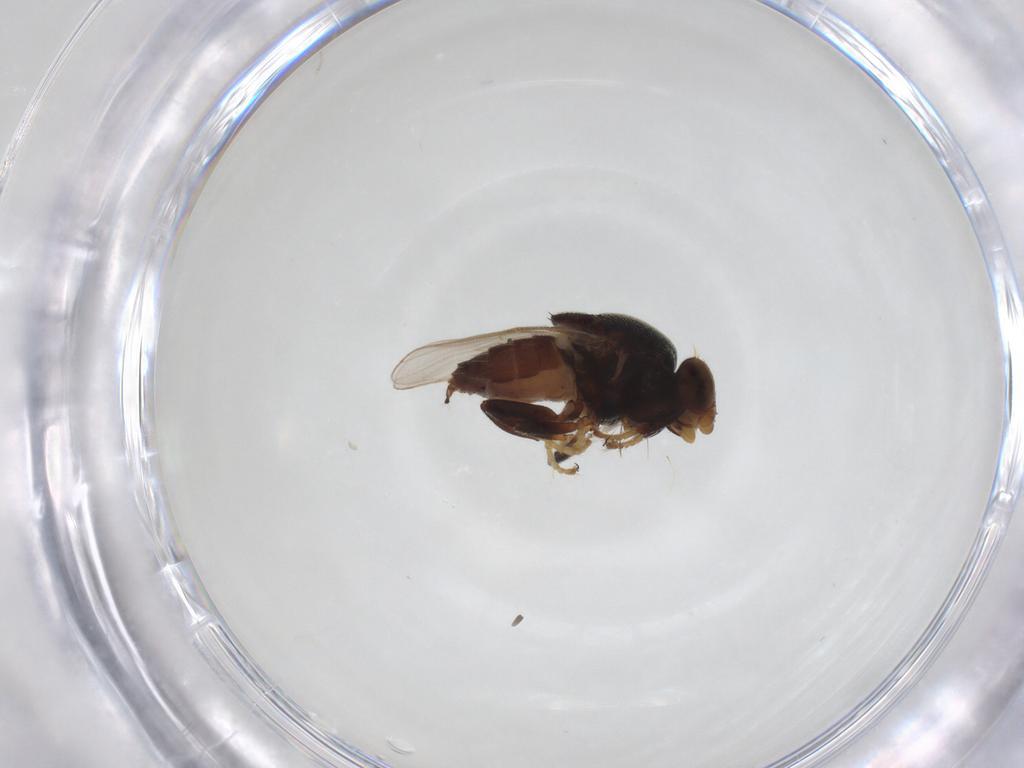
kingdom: Animalia
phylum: Arthropoda
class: Insecta
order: Diptera
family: Chloropidae
